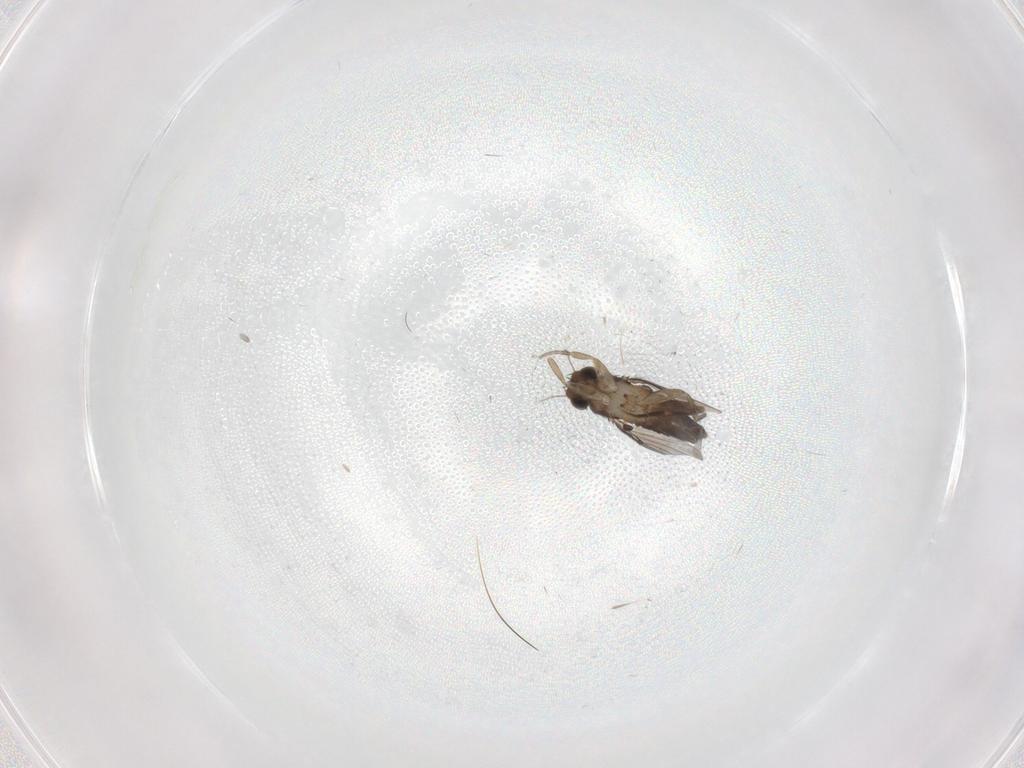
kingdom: Animalia
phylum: Arthropoda
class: Insecta
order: Diptera
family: Phoridae
